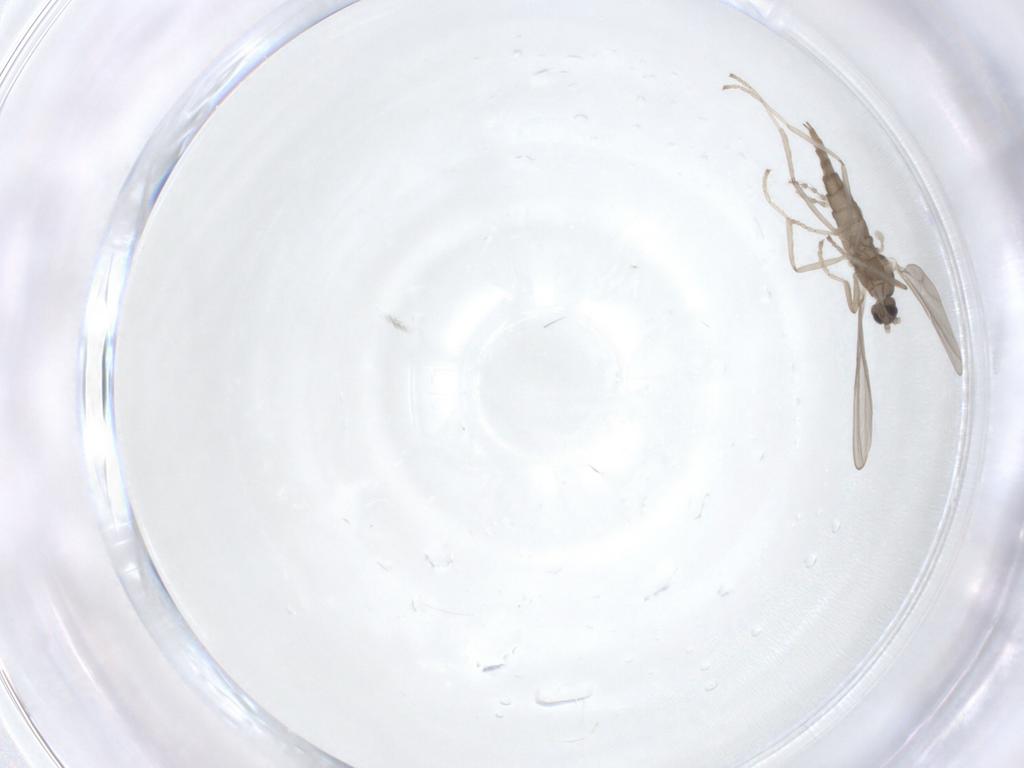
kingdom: Animalia
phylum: Arthropoda
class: Insecta
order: Diptera
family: Cecidomyiidae
